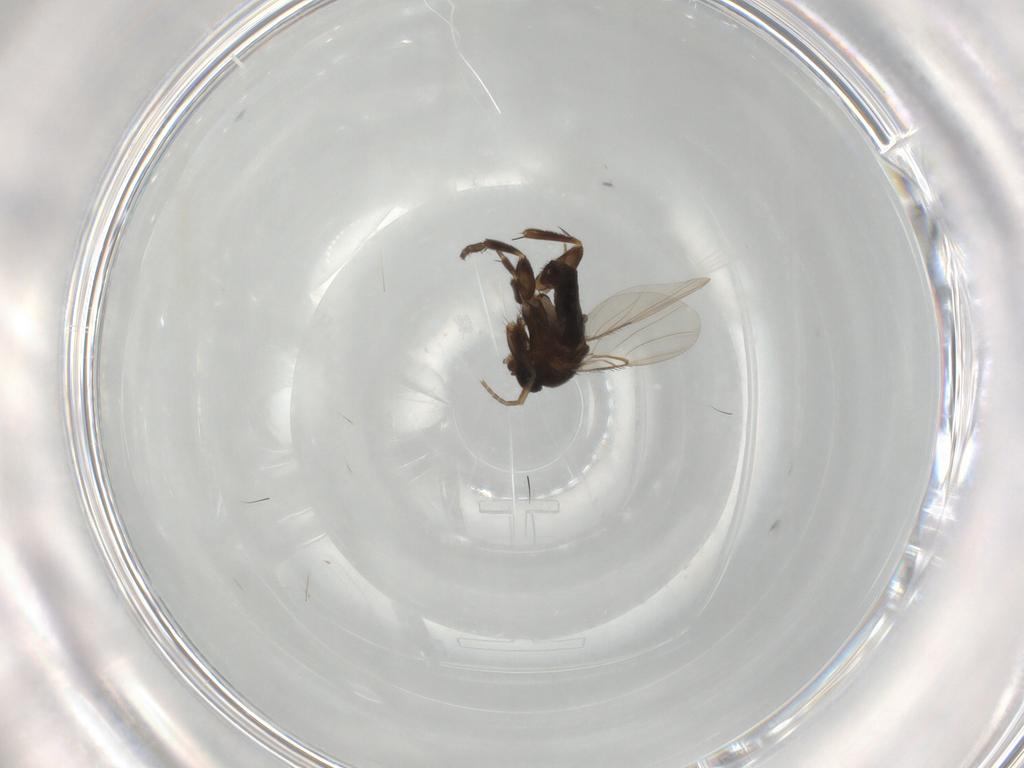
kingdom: Animalia
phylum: Arthropoda
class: Insecta
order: Diptera
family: Phoridae
